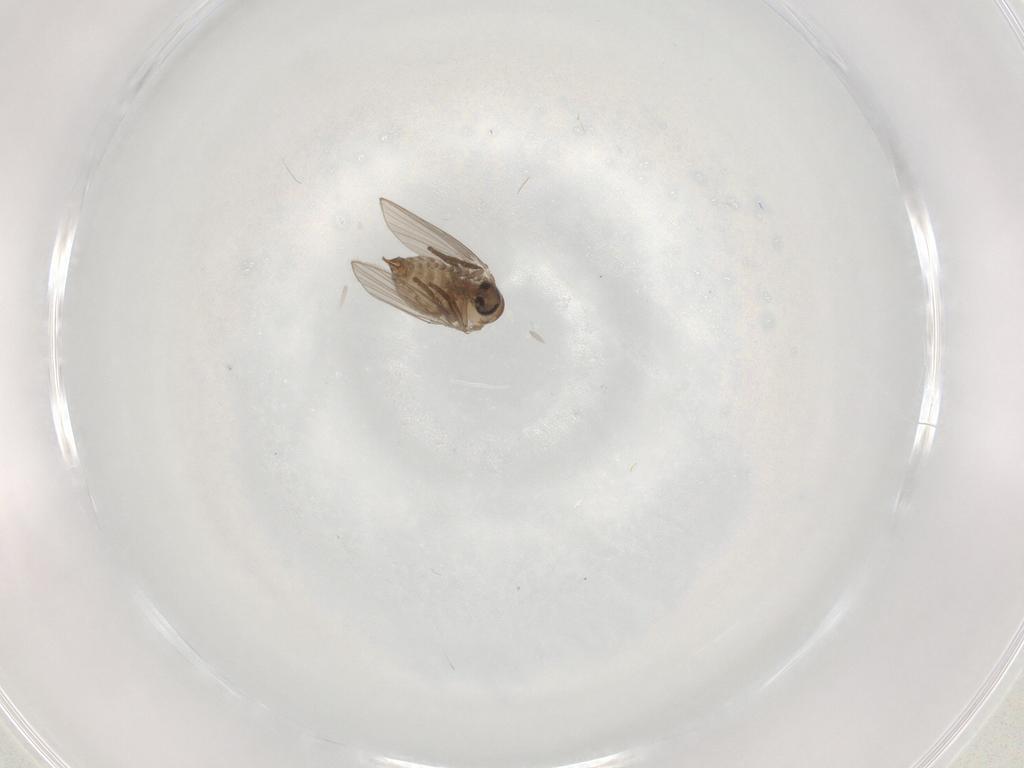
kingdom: Animalia
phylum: Arthropoda
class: Insecta
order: Diptera
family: Psychodidae
